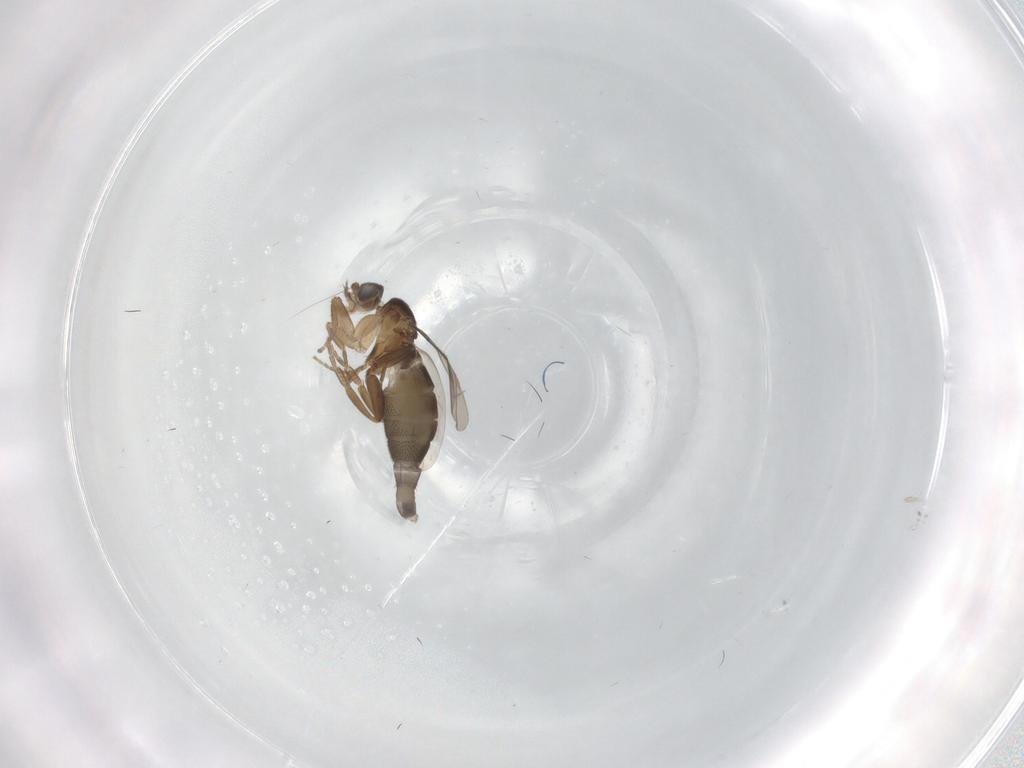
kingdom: Animalia
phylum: Arthropoda
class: Insecta
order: Diptera
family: Phoridae
